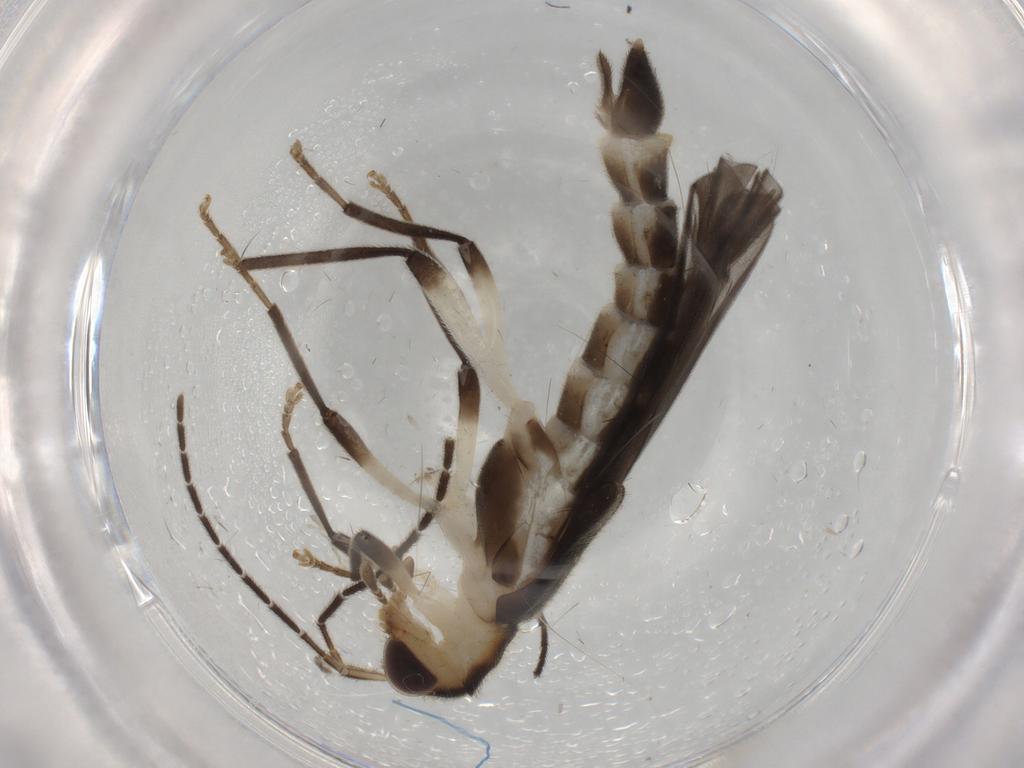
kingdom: Animalia
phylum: Arthropoda
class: Insecta
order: Coleoptera
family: Cantharidae
